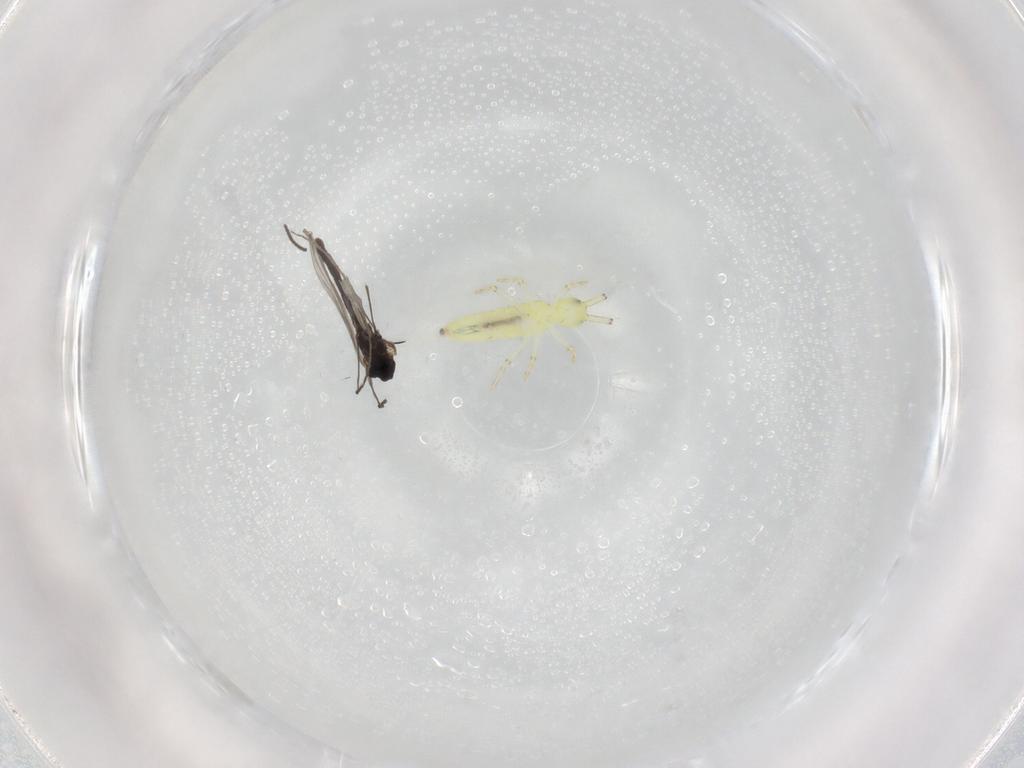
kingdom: Animalia
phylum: Arthropoda
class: Insecta
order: Diptera
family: Chironomidae
